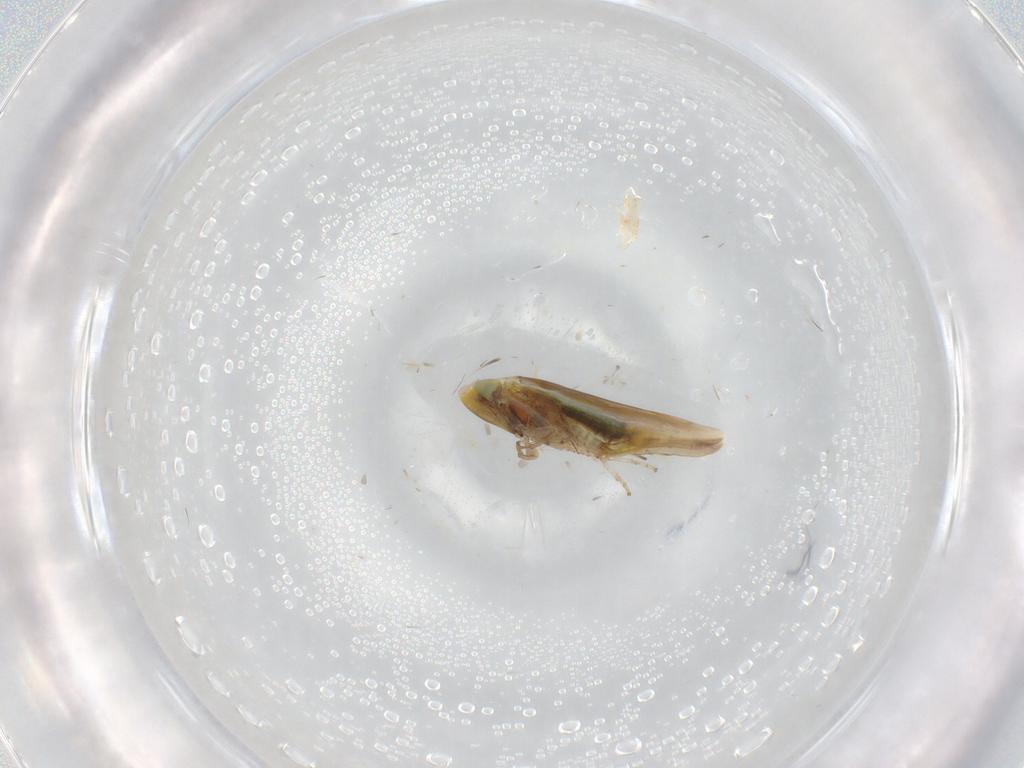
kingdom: Animalia
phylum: Arthropoda
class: Insecta
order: Hemiptera
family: Cicadellidae
